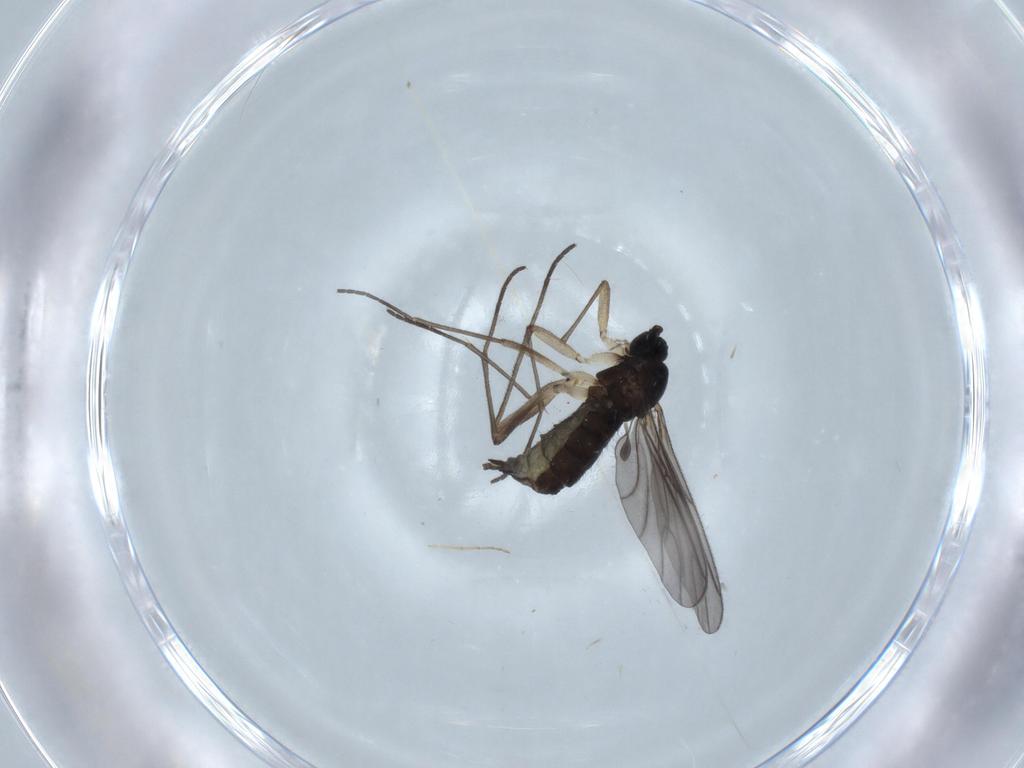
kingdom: Animalia
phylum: Arthropoda
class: Insecta
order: Diptera
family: Sciaridae
